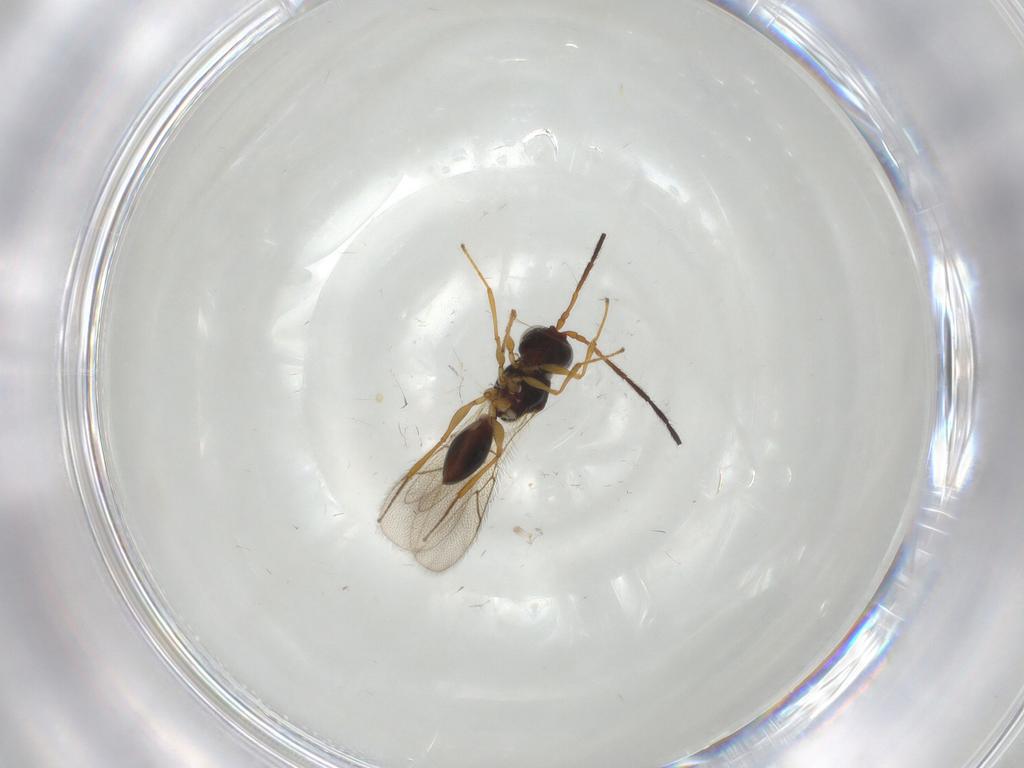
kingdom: Animalia
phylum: Arthropoda
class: Insecta
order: Hymenoptera
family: Figitidae
